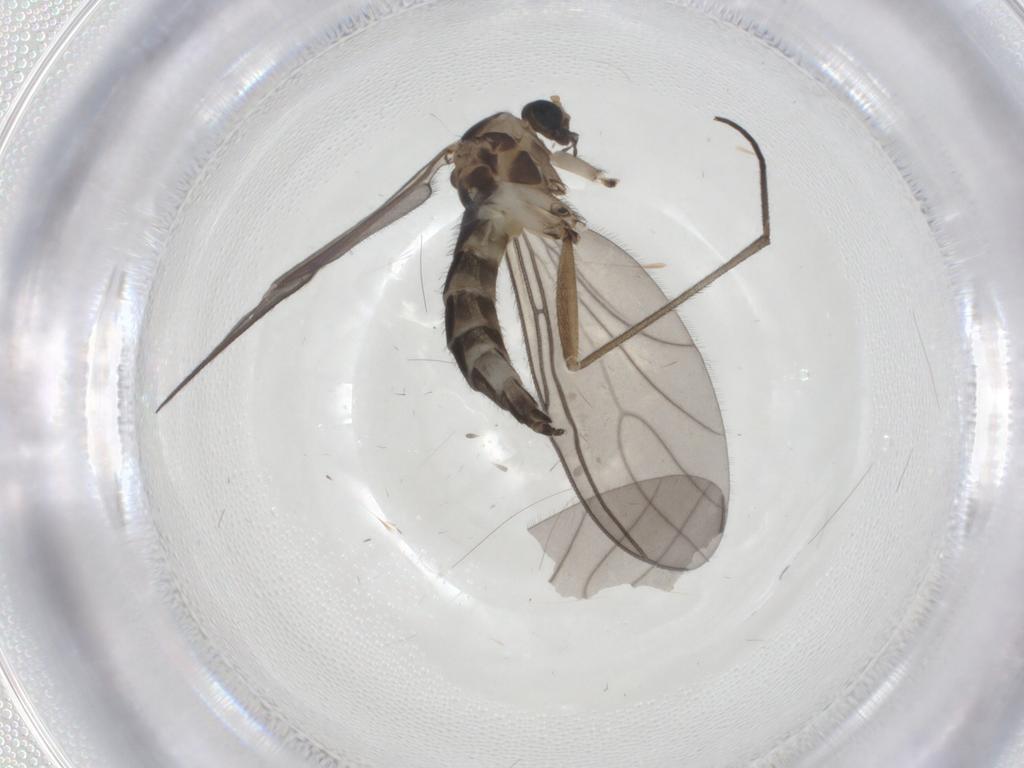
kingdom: Animalia
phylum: Arthropoda
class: Insecta
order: Diptera
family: Sciaridae
